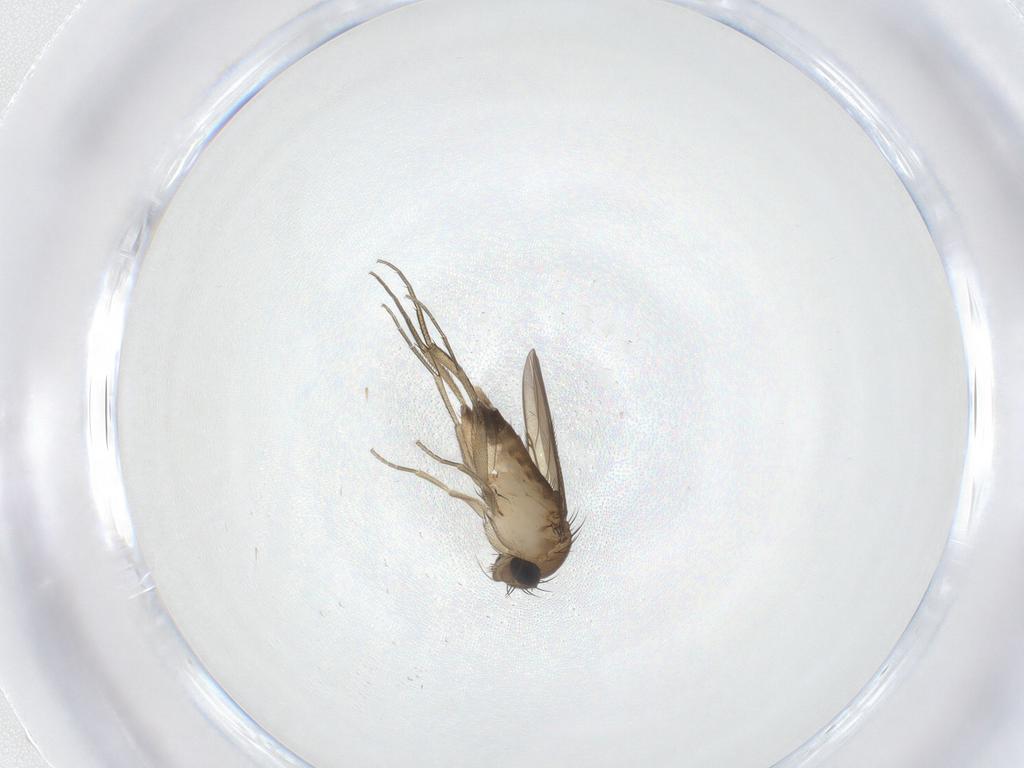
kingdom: Animalia
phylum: Arthropoda
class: Insecta
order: Diptera
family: Phoridae
